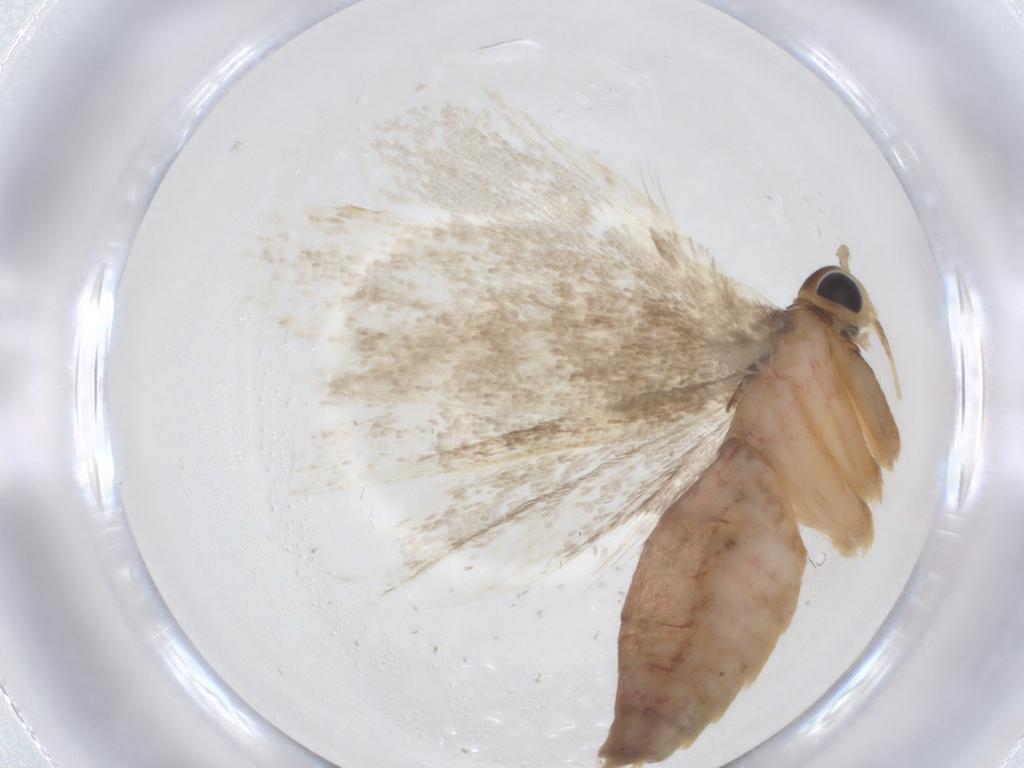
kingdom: Animalia
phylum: Arthropoda
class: Insecta
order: Lepidoptera
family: Lecithoceridae
